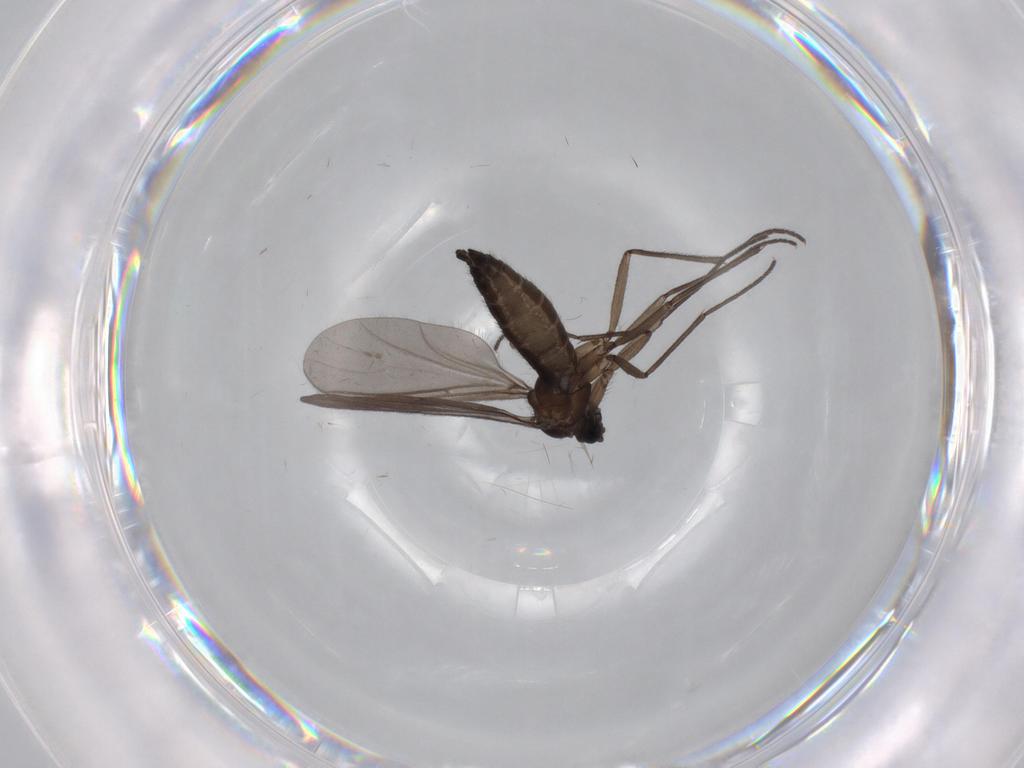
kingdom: Animalia
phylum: Arthropoda
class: Insecta
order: Diptera
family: Sciaridae
